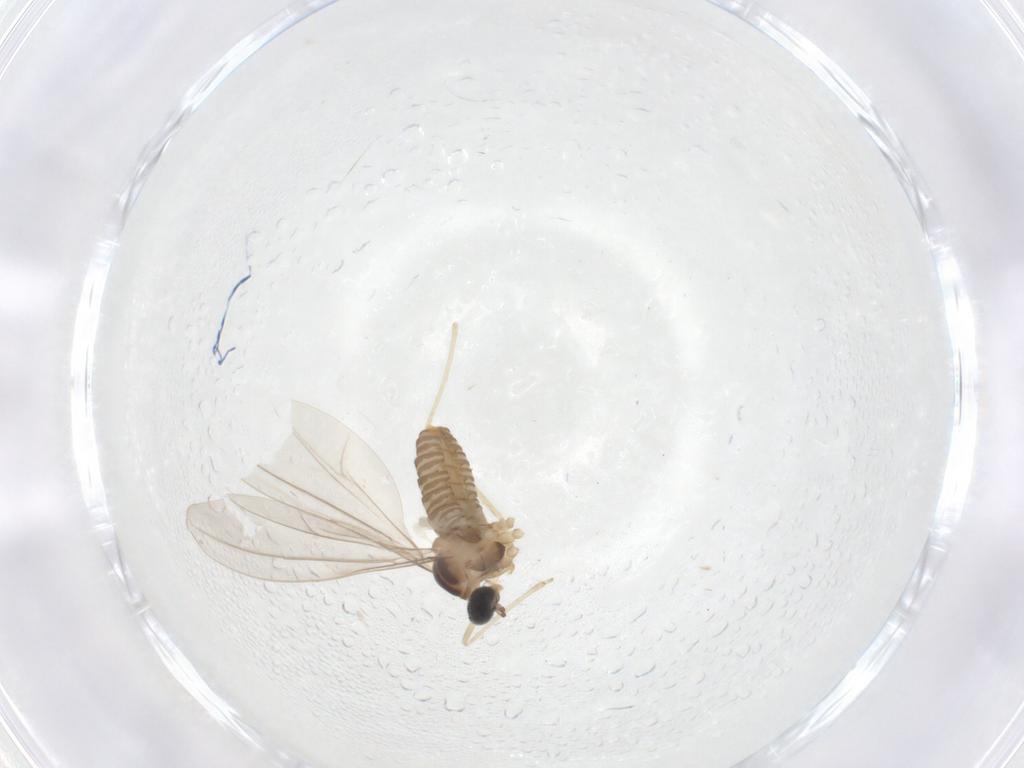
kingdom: Animalia
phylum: Arthropoda
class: Insecta
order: Diptera
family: Cecidomyiidae
